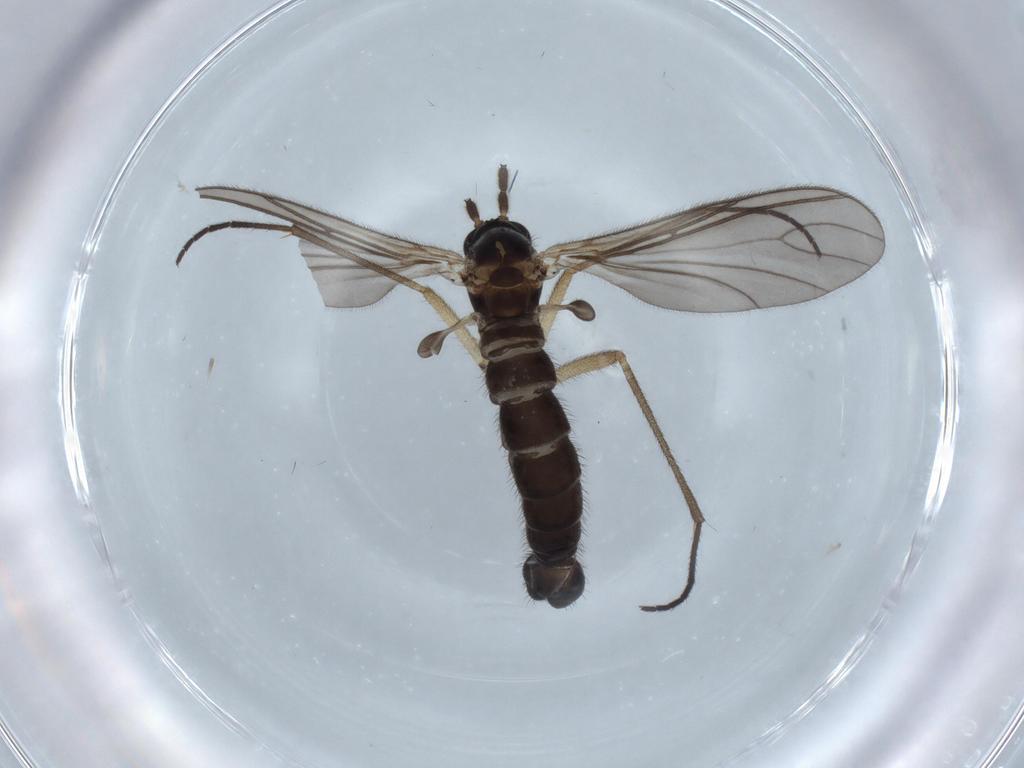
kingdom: Animalia
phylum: Arthropoda
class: Insecta
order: Diptera
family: Sciaridae
